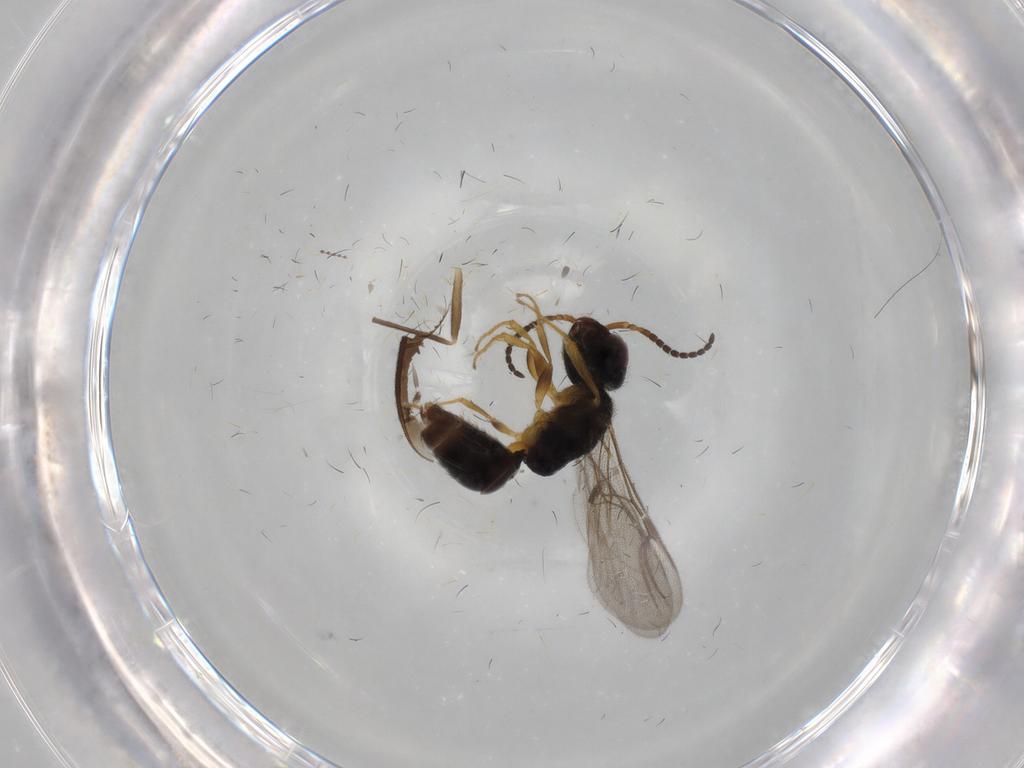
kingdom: Animalia
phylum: Arthropoda
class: Insecta
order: Hymenoptera
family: Bethylidae
